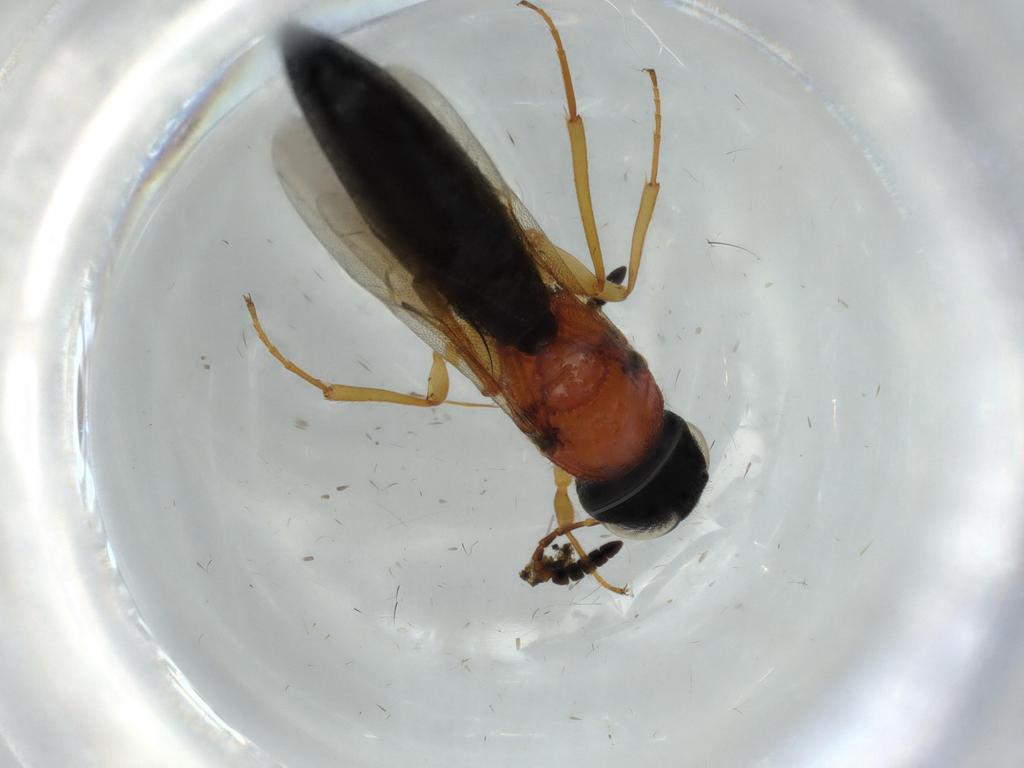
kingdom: Animalia
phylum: Arthropoda
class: Insecta
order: Hymenoptera
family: Scelionidae
